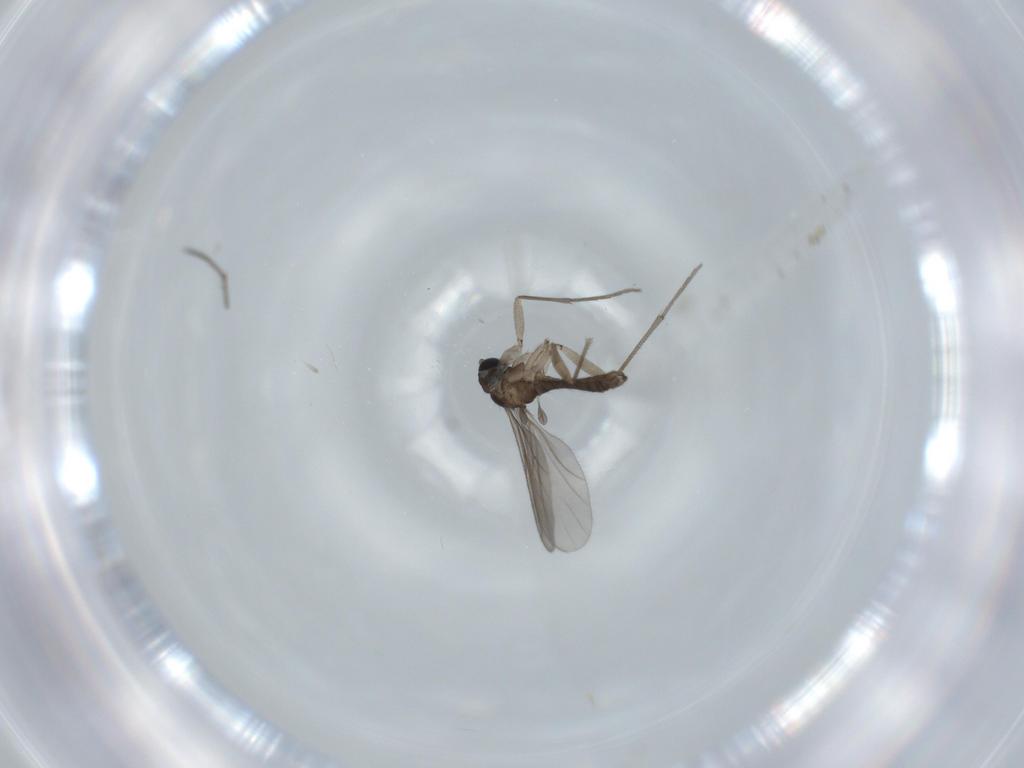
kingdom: Animalia
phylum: Arthropoda
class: Insecta
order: Diptera
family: Sciaridae
